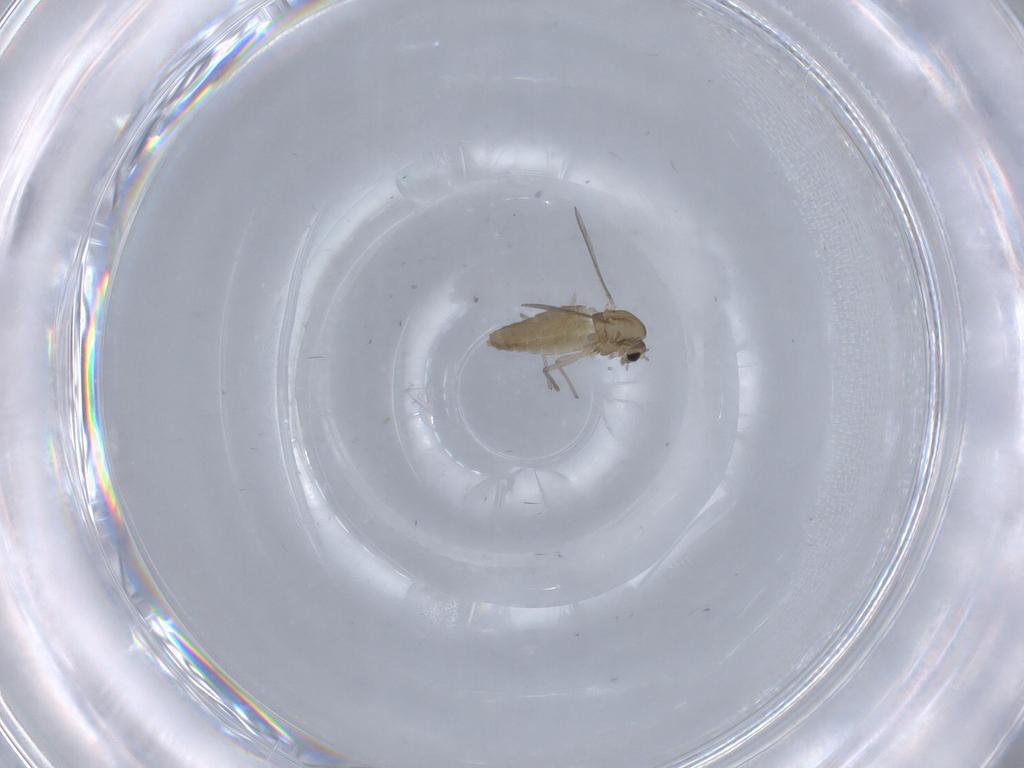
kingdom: Animalia
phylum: Arthropoda
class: Insecta
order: Diptera
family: Chironomidae
